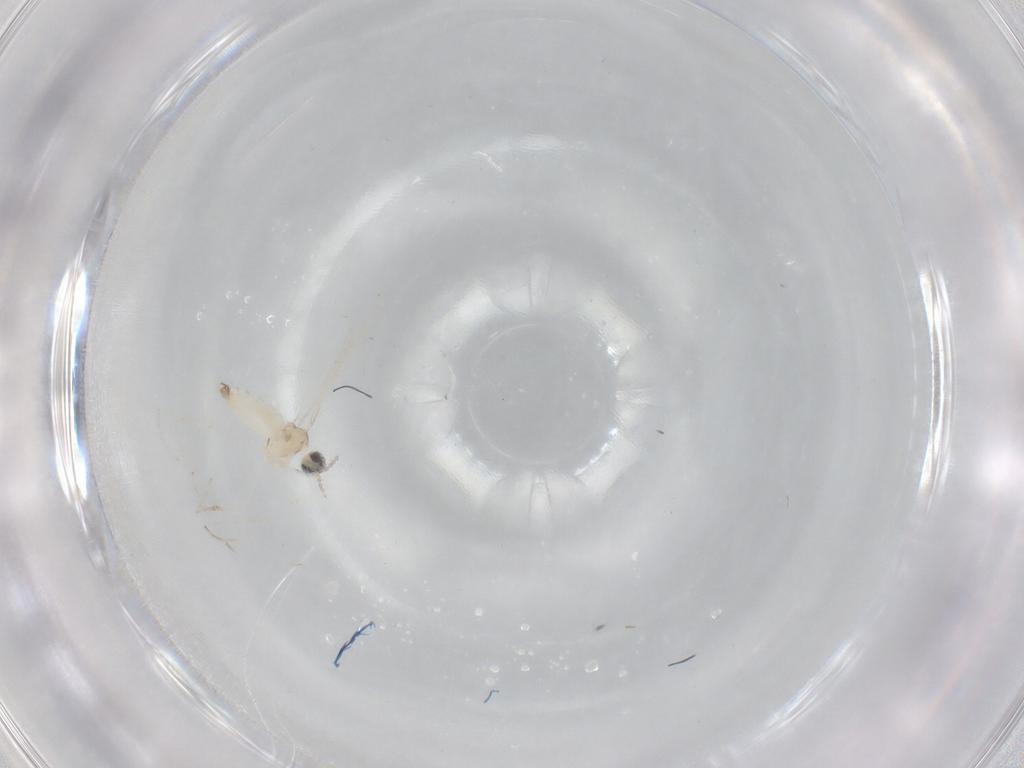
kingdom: Animalia
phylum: Arthropoda
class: Insecta
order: Diptera
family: Cecidomyiidae
